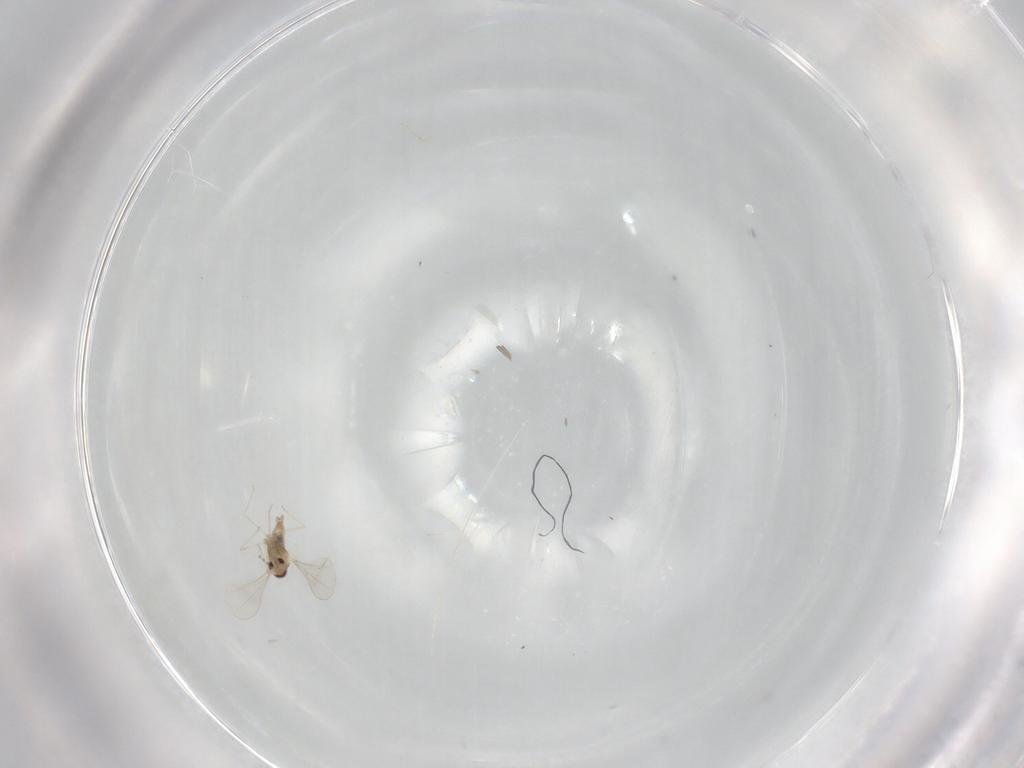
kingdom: Animalia
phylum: Arthropoda
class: Insecta
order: Diptera
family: Cecidomyiidae
